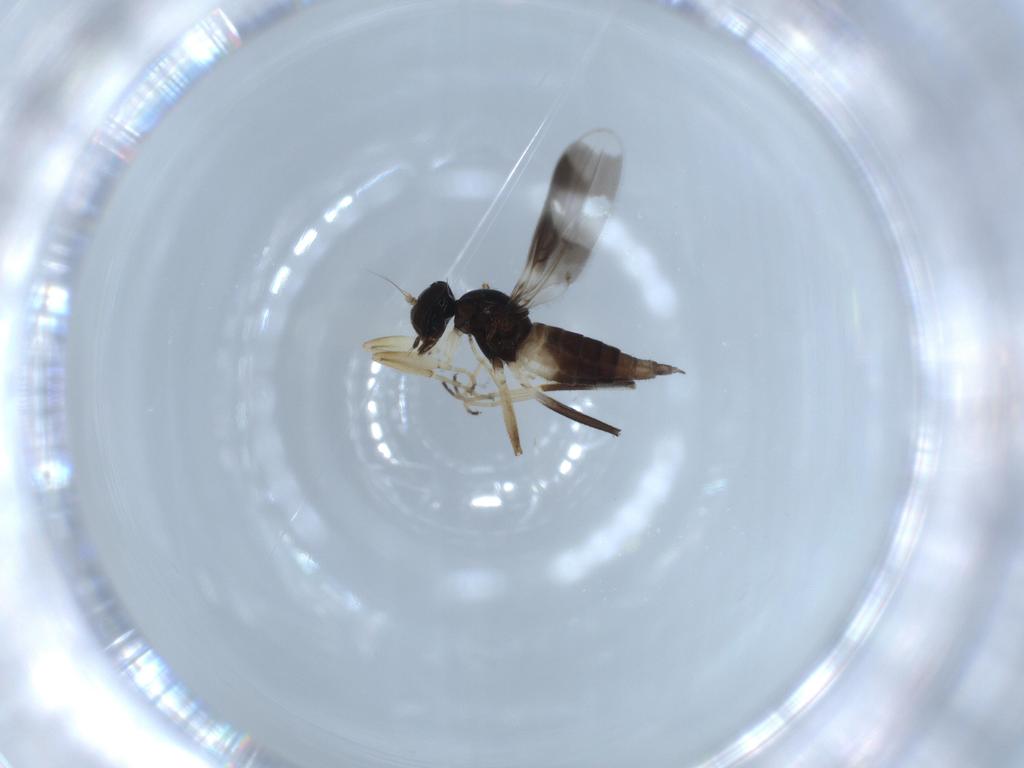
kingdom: Animalia
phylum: Arthropoda
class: Insecta
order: Diptera
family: Hybotidae
